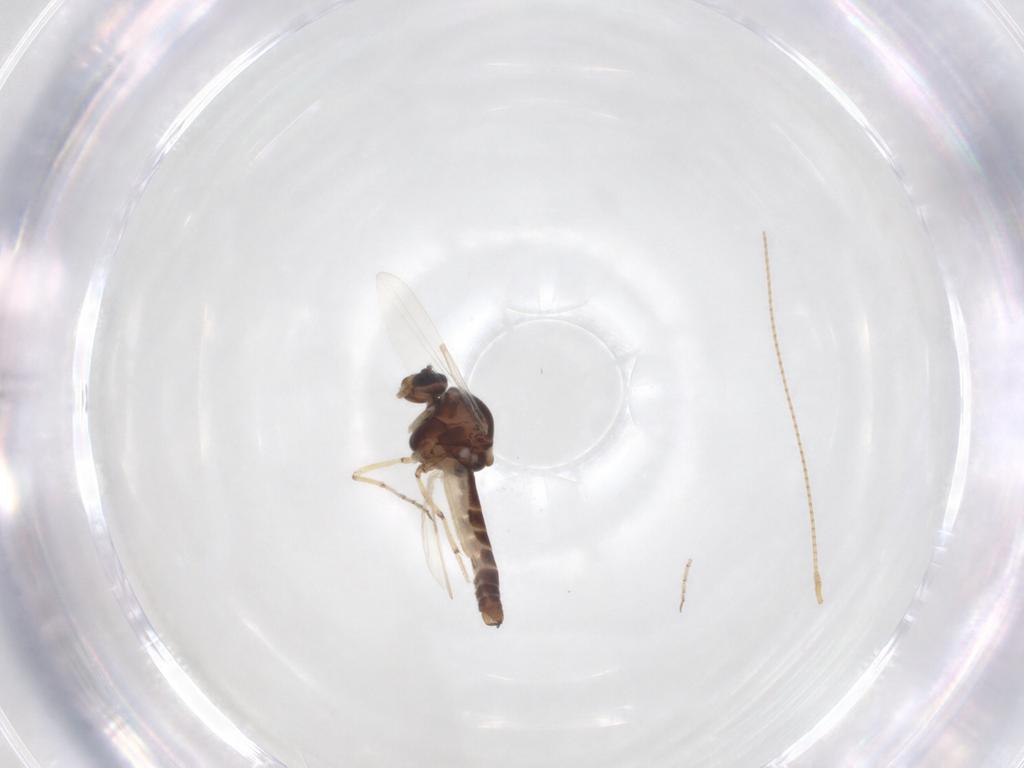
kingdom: Animalia
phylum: Arthropoda
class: Insecta
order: Diptera
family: Ceratopogonidae
